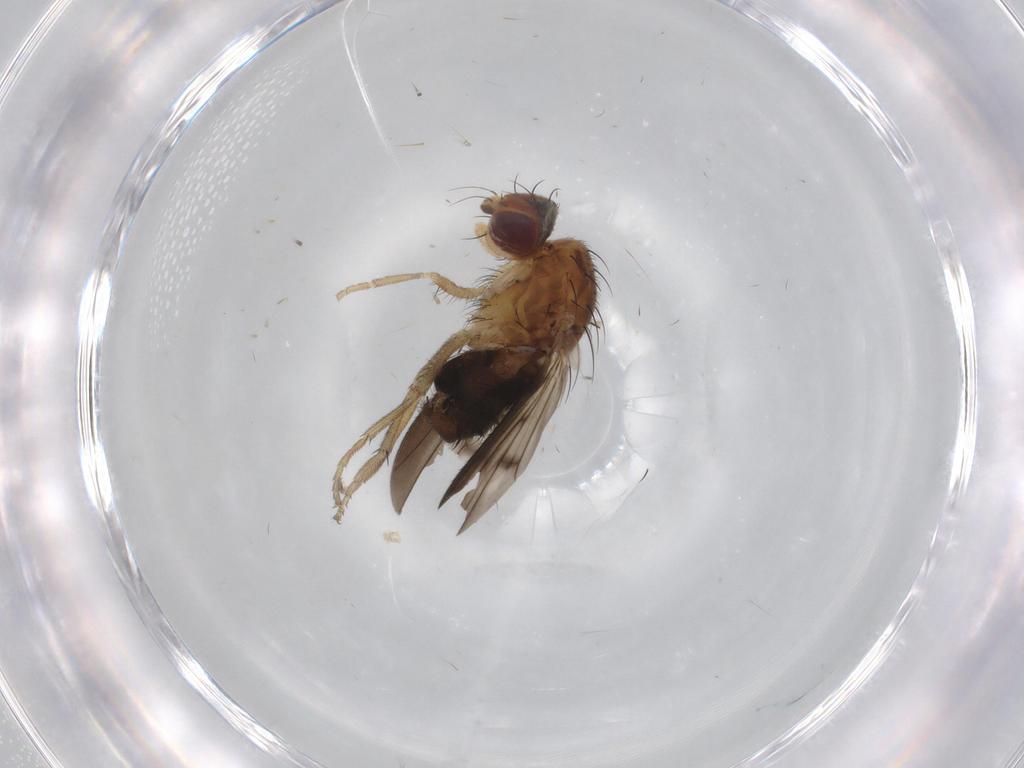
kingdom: Animalia
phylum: Arthropoda
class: Insecta
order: Diptera
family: Heleomyzidae
